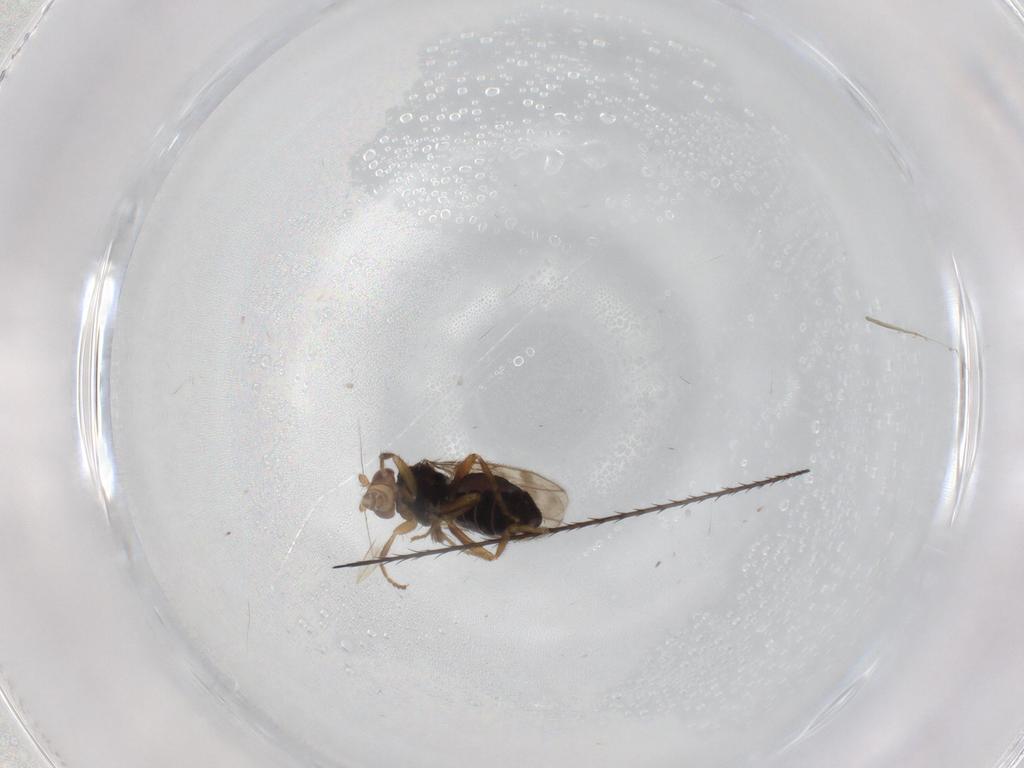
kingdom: Animalia
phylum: Arthropoda
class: Insecta
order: Diptera
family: Sphaeroceridae
